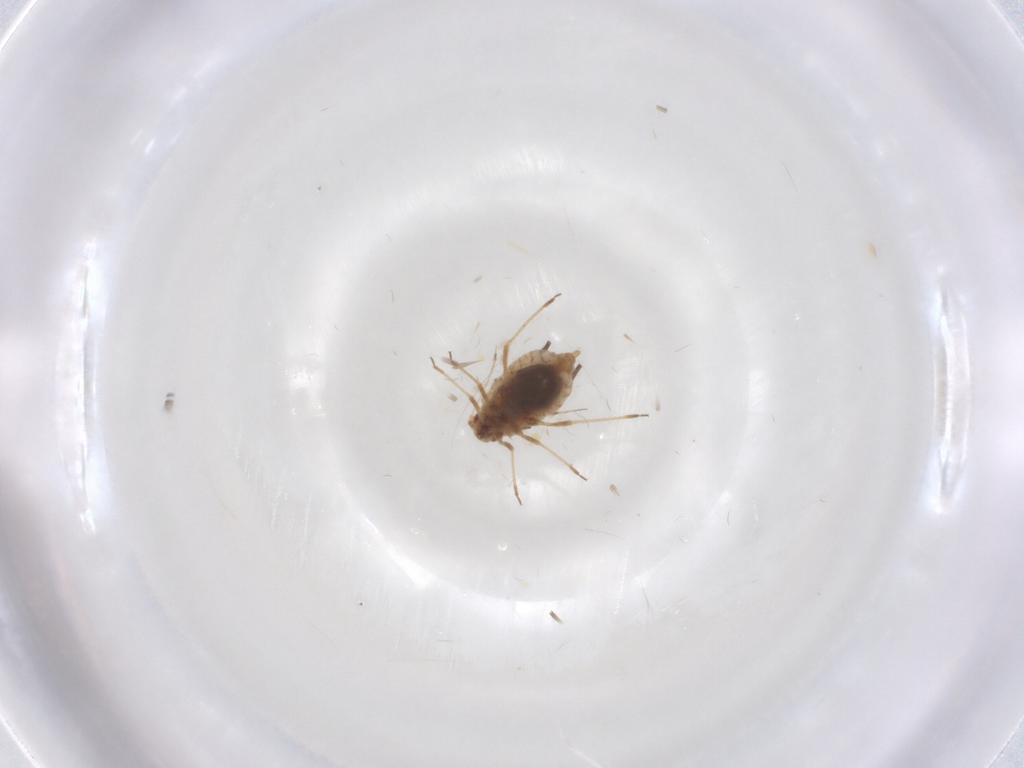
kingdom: Animalia
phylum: Arthropoda
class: Insecta
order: Hemiptera
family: Aphididae
